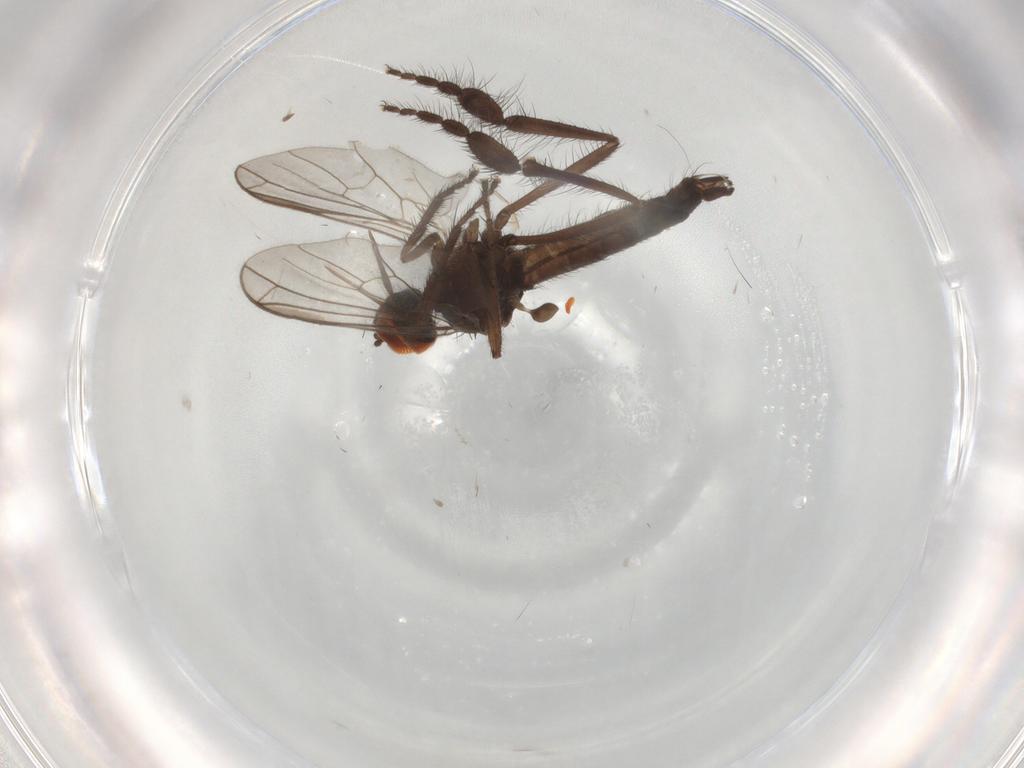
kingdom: Animalia
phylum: Arthropoda
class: Insecta
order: Diptera
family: Empididae
